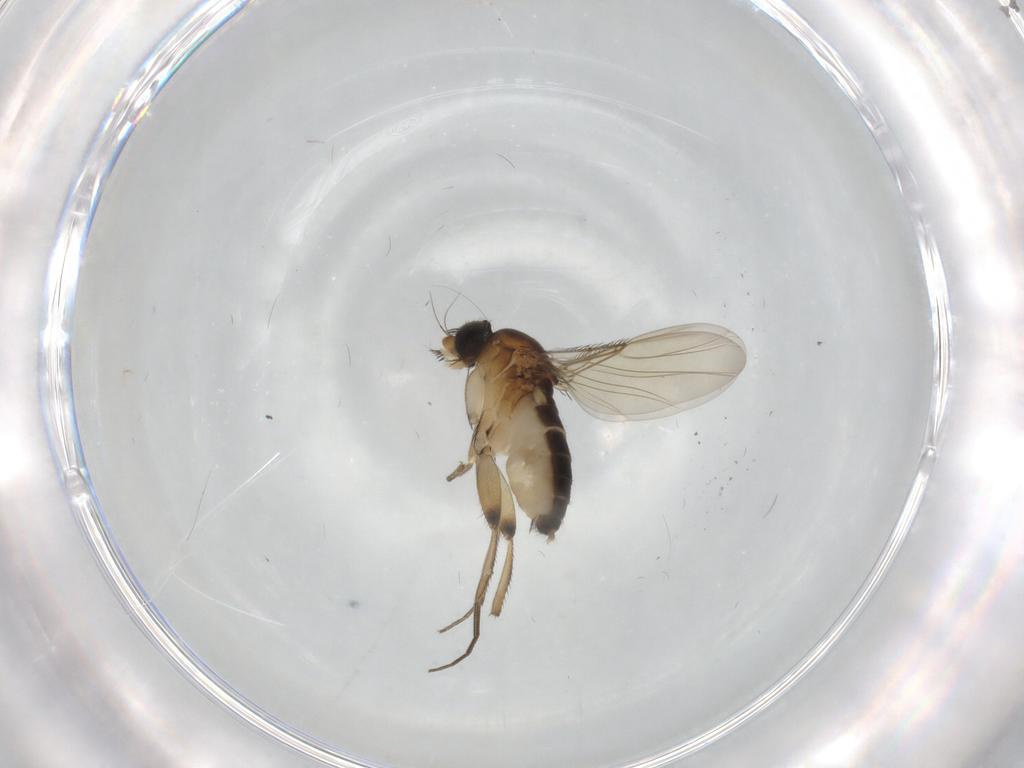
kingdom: Animalia
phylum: Arthropoda
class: Insecta
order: Diptera
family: Phoridae
